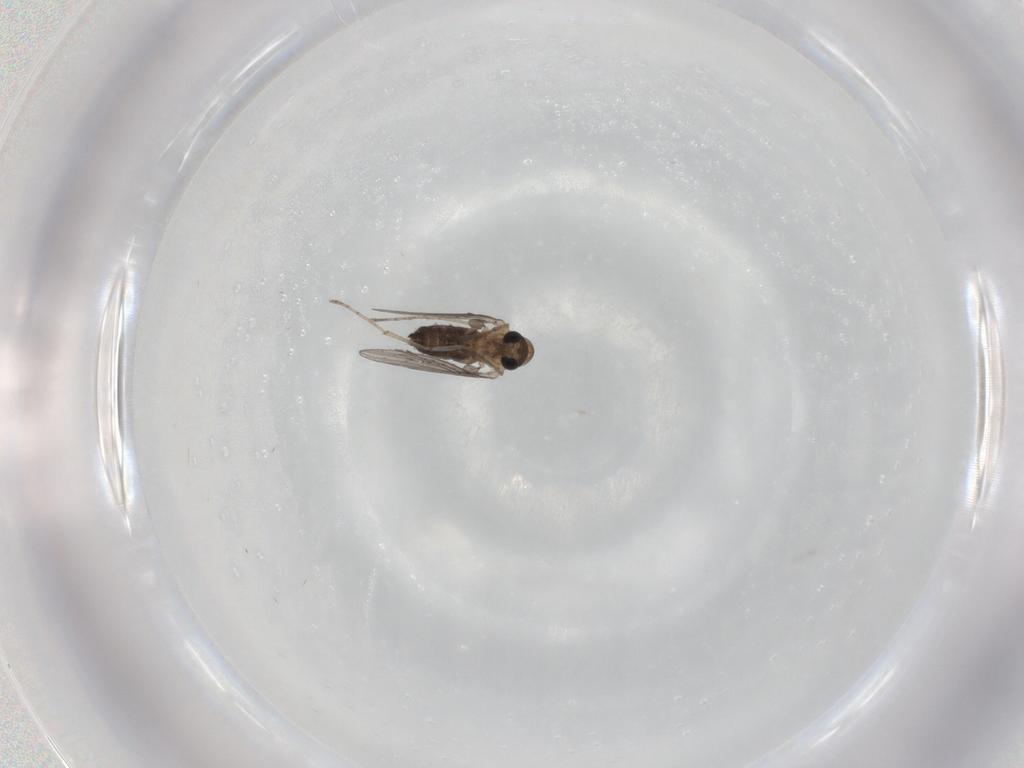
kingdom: Animalia
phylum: Arthropoda
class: Insecta
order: Diptera
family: Psychodidae
